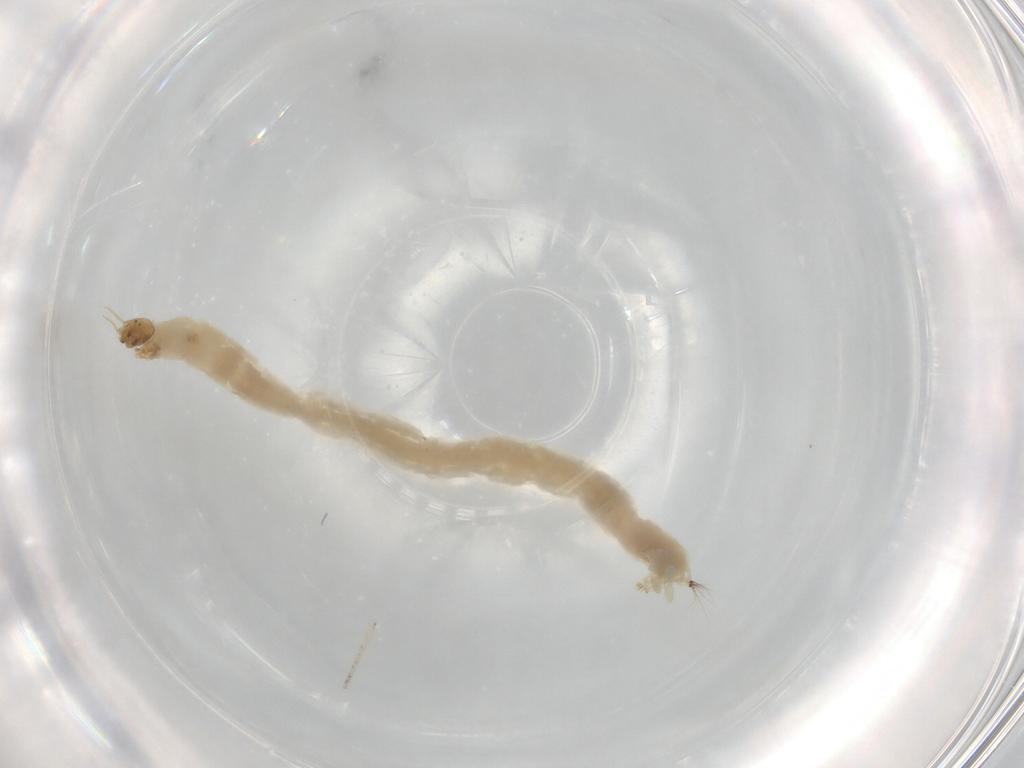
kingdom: Animalia
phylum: Arthropoda
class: Insecta
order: Diptera
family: Chironomidae
